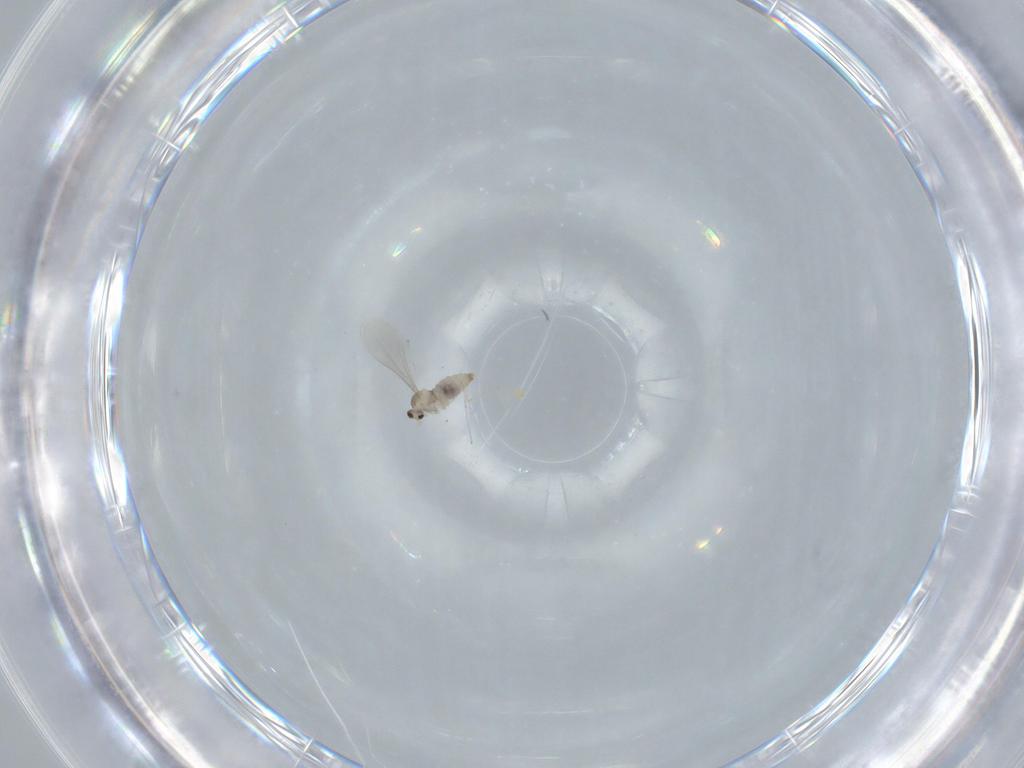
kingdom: Animalia
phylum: Arthropoda
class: Insecta
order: Diptera
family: Cecidomyiidae
